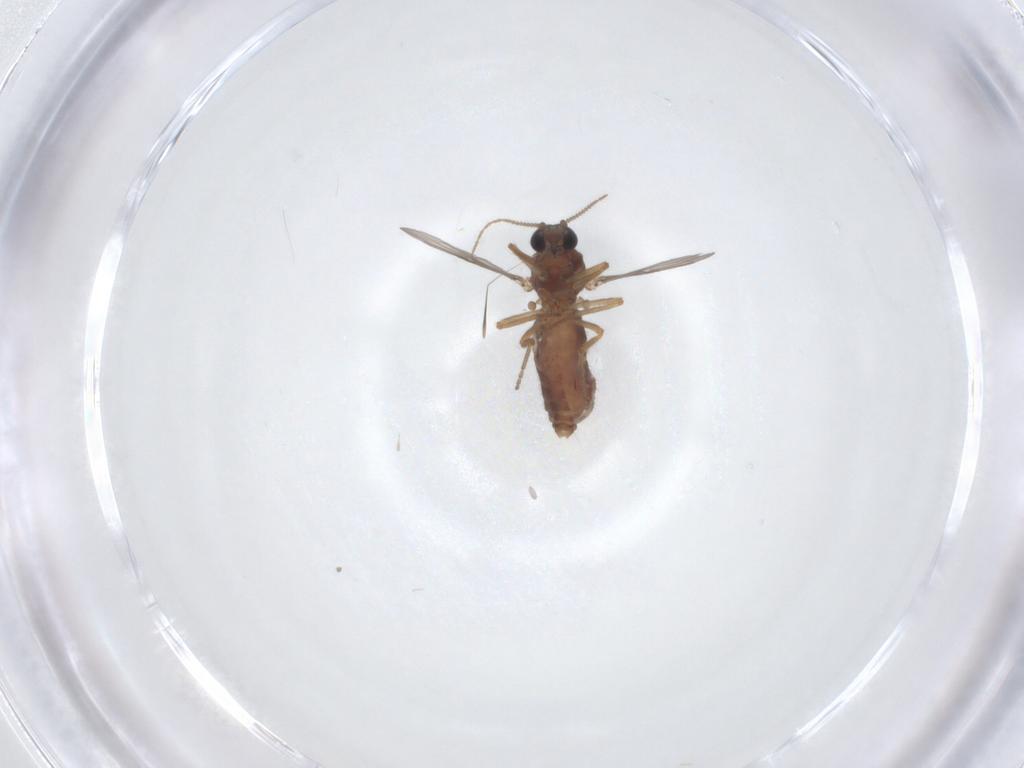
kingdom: Animalia
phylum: Arthropoda
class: Insecta
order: Diptera
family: Ceratopogonidae
